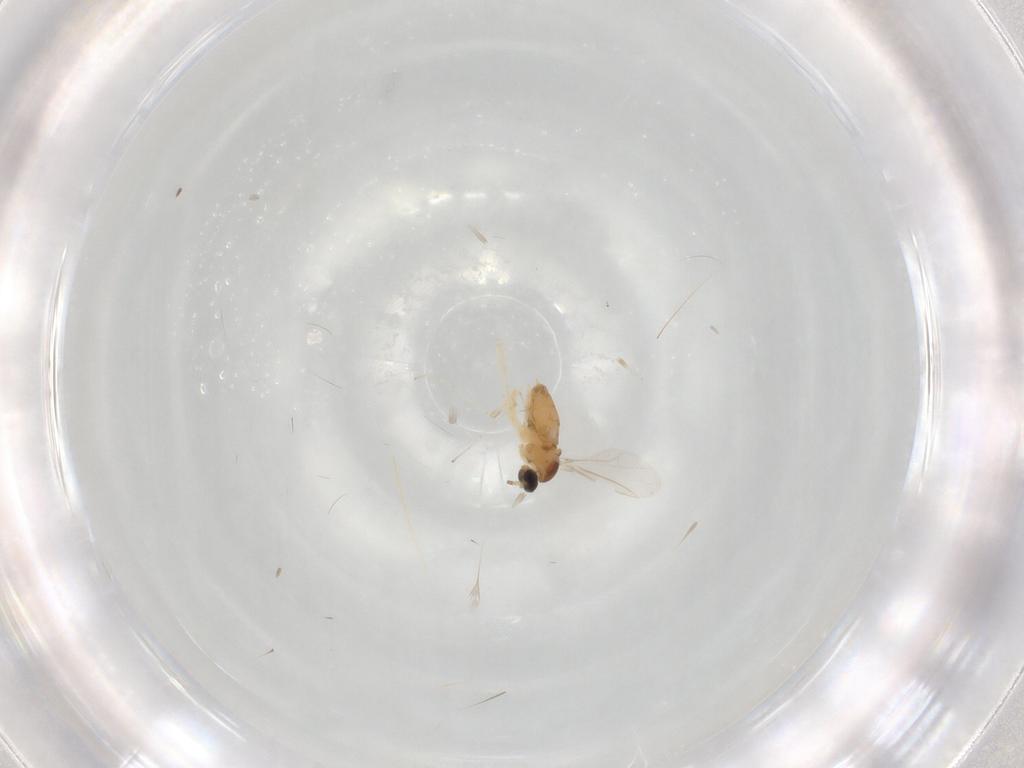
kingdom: Animalia
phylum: Arthropoda
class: Insecta
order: Diptera
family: Cecidomyiidae
